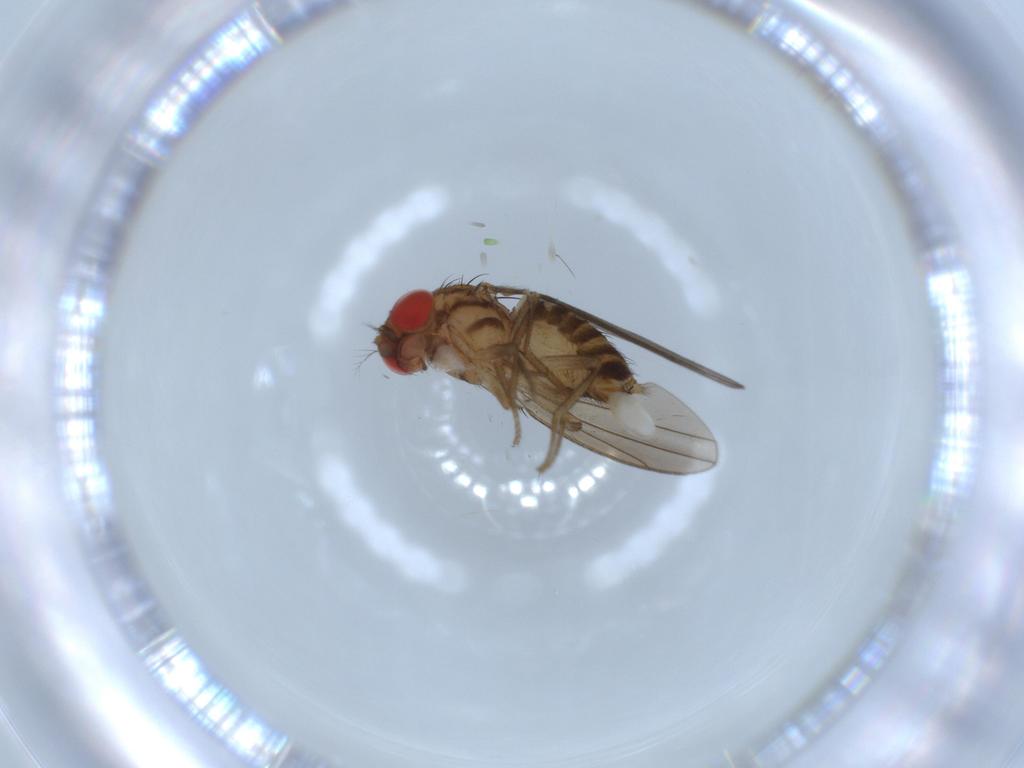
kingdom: Animalia
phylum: Arthropoda
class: Insecta
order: Diptera
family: Drosophilidae
